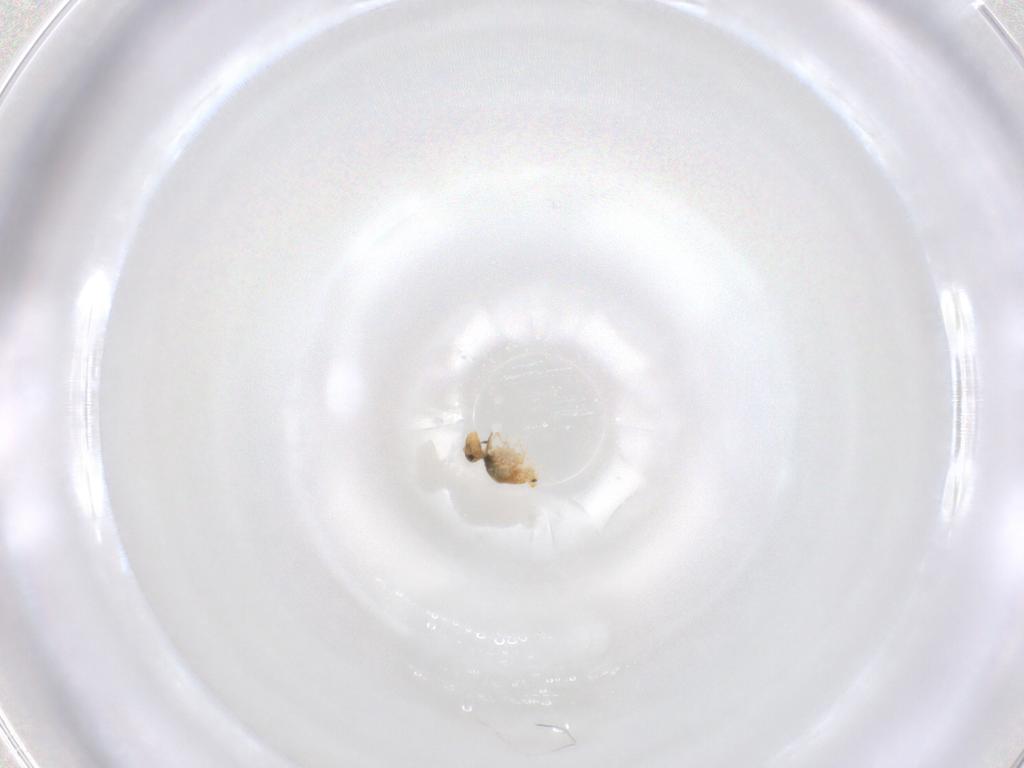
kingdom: Animalia
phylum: Arthropoda
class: Collembola
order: Symphypleona
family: Katiannidae
